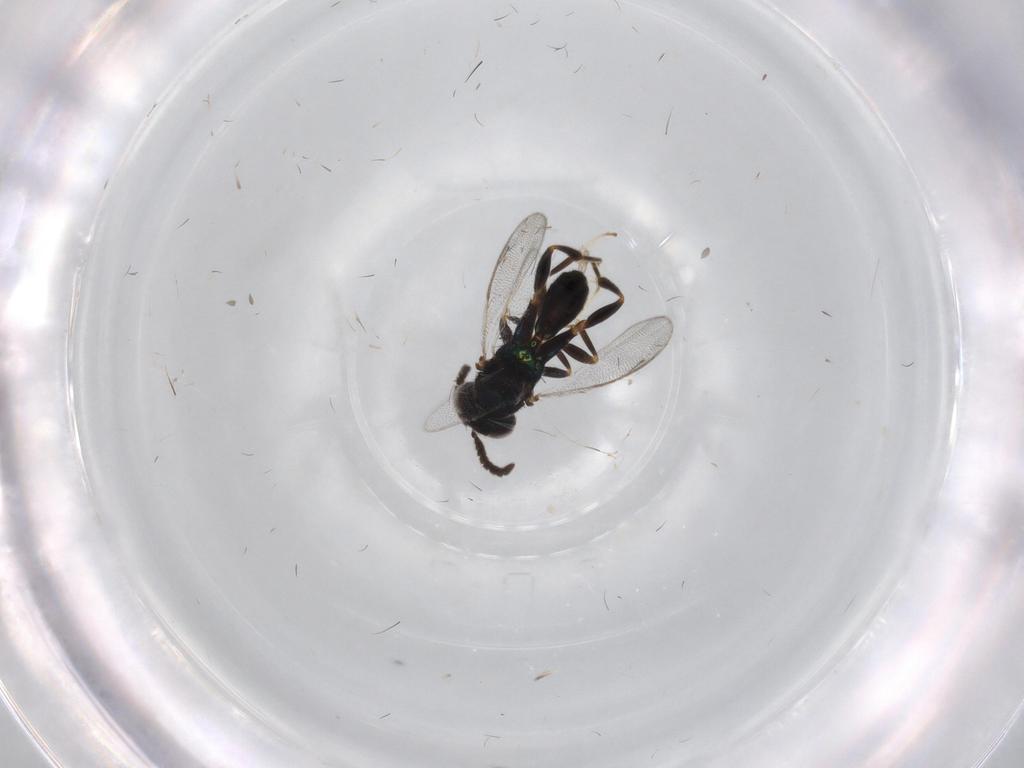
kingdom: Animalia
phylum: Arthropoda
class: Insecta
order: Hymenoptera
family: Cleonyminae
